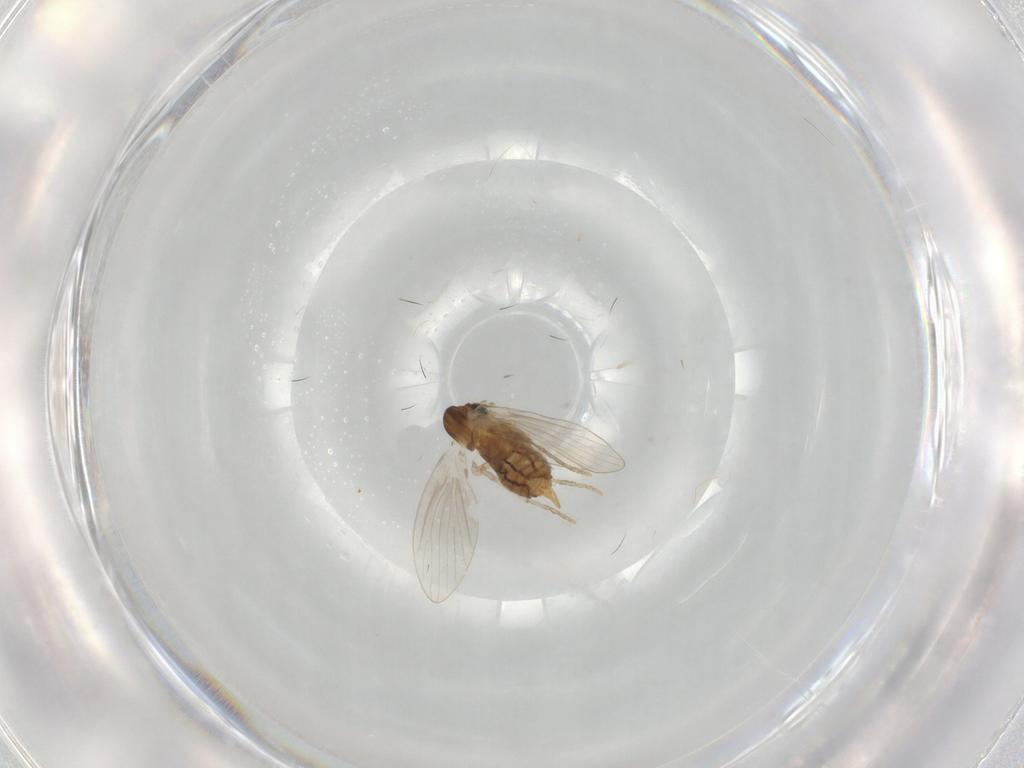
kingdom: Animalia
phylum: Arthropoda
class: Insecta
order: Diptera
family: Psychodidae
